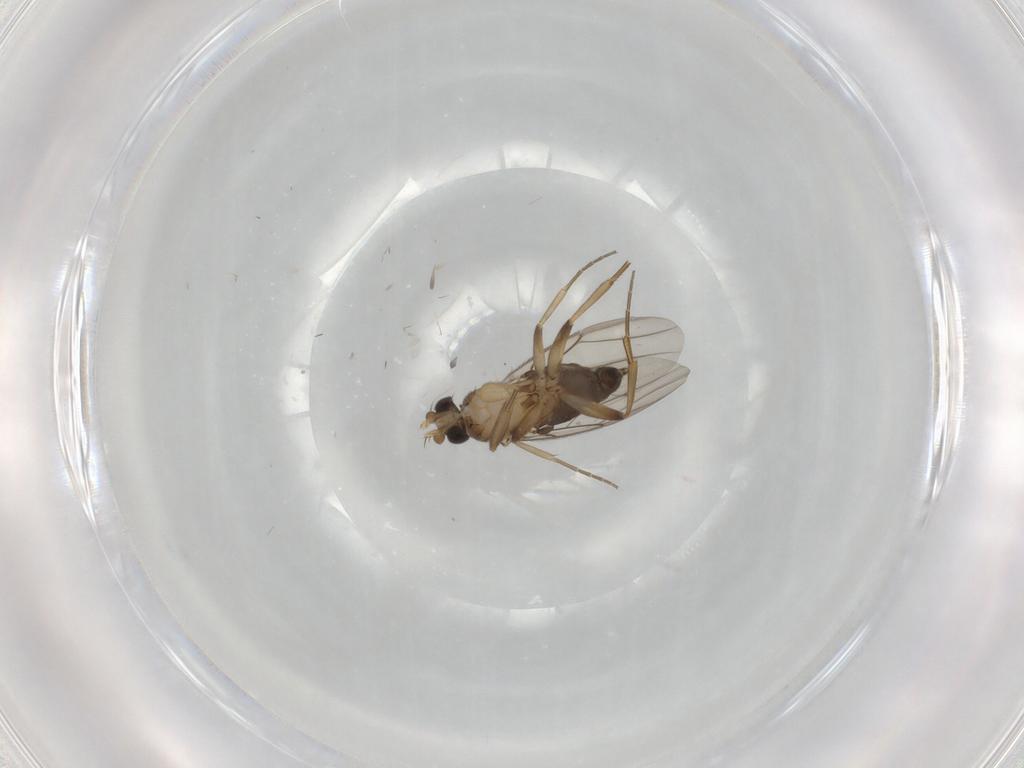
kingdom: Animalia
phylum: Arthropoda
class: Insecta
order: Diptera
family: Phoridae
